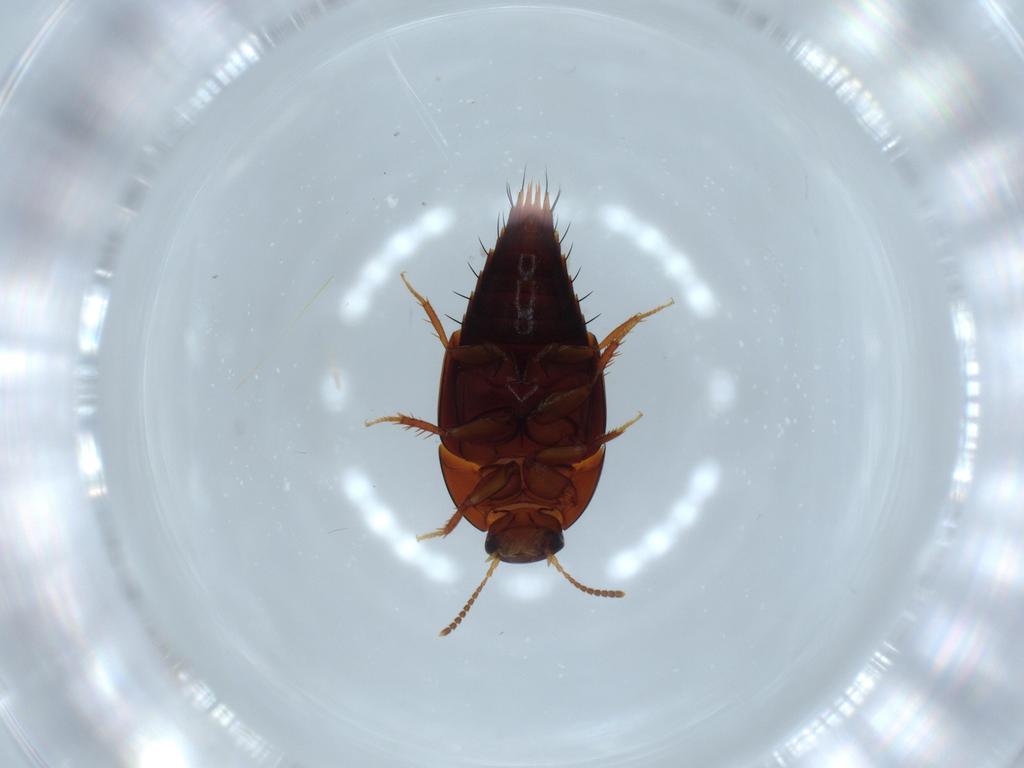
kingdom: Animalia
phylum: Arthropoda
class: Insecta
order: Coleoptera
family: Staphylinidae
